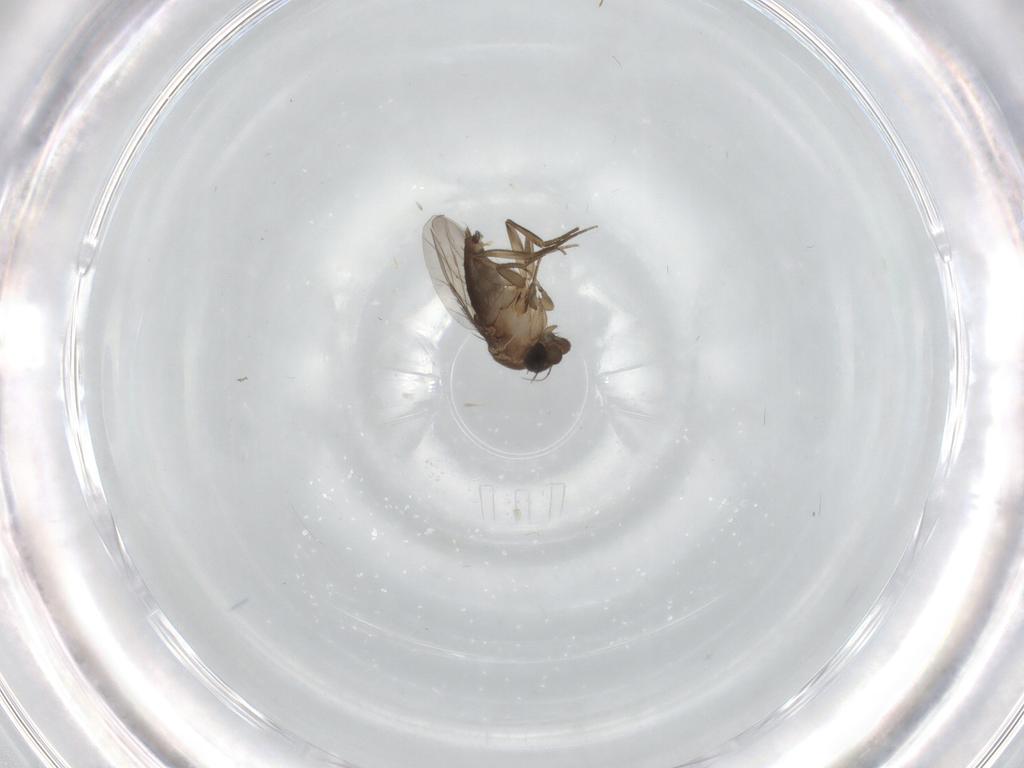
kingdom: Animalia
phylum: Arthropoda
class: Insecta
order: Diptera
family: Phoridae
